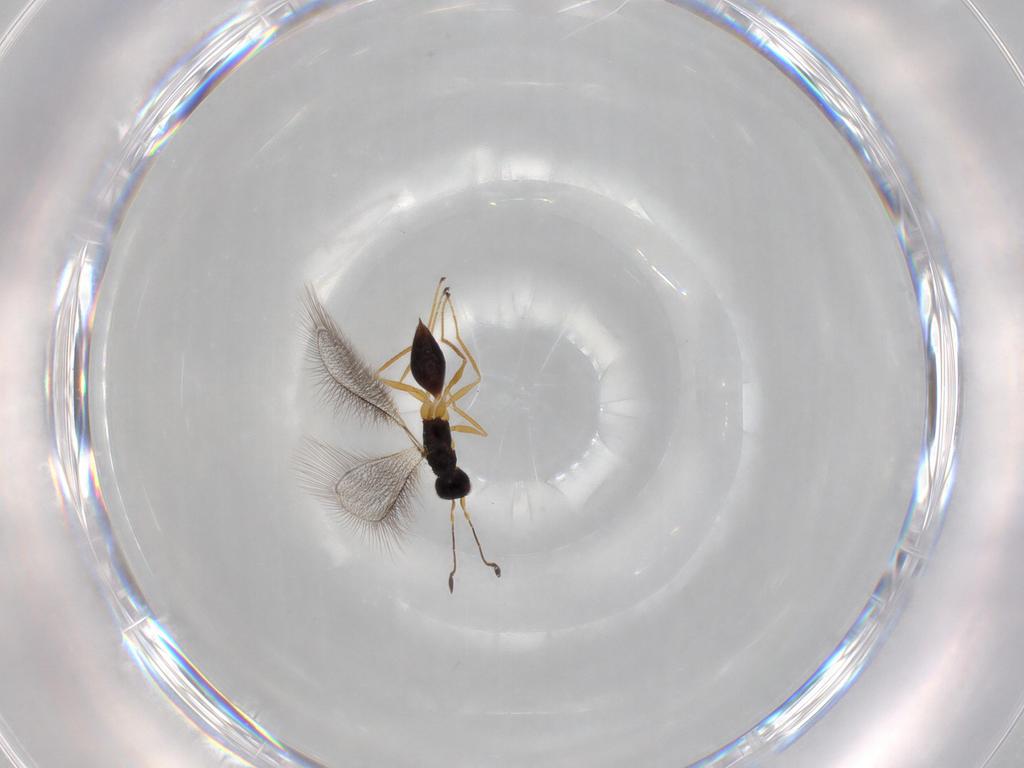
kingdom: Animalia
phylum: Arthropoda
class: Insecta
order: Hymenoptera
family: Mymaridae
